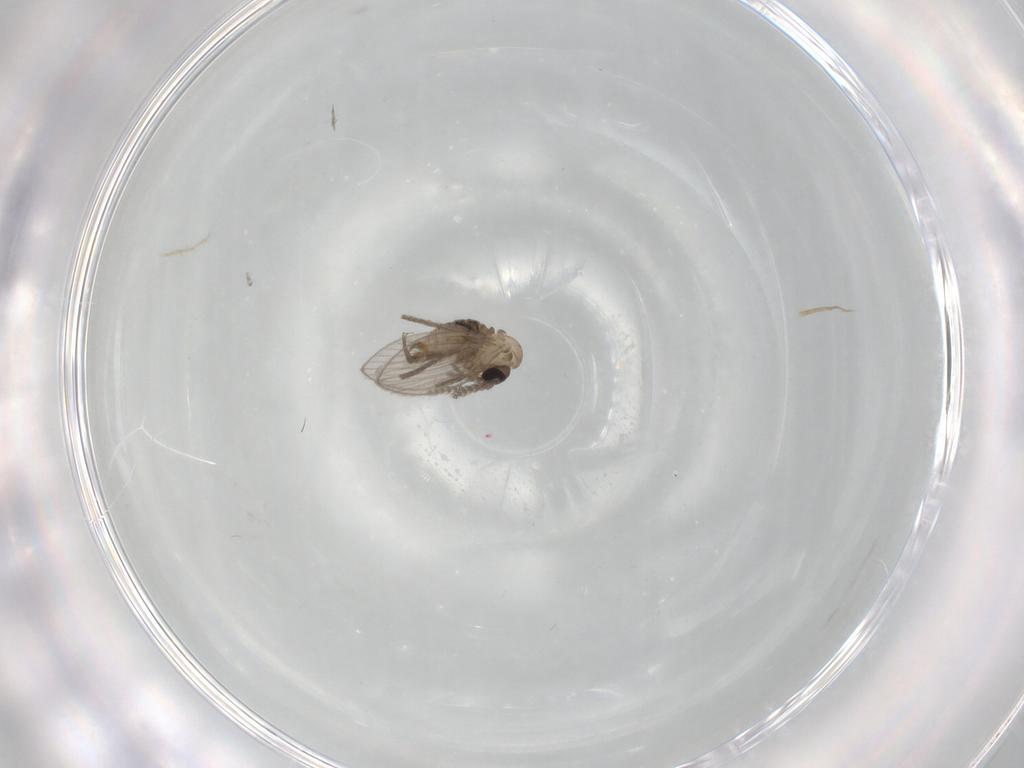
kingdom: Animalia
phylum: Arthropoda
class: Insecta
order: Diptera
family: Psychodidae
